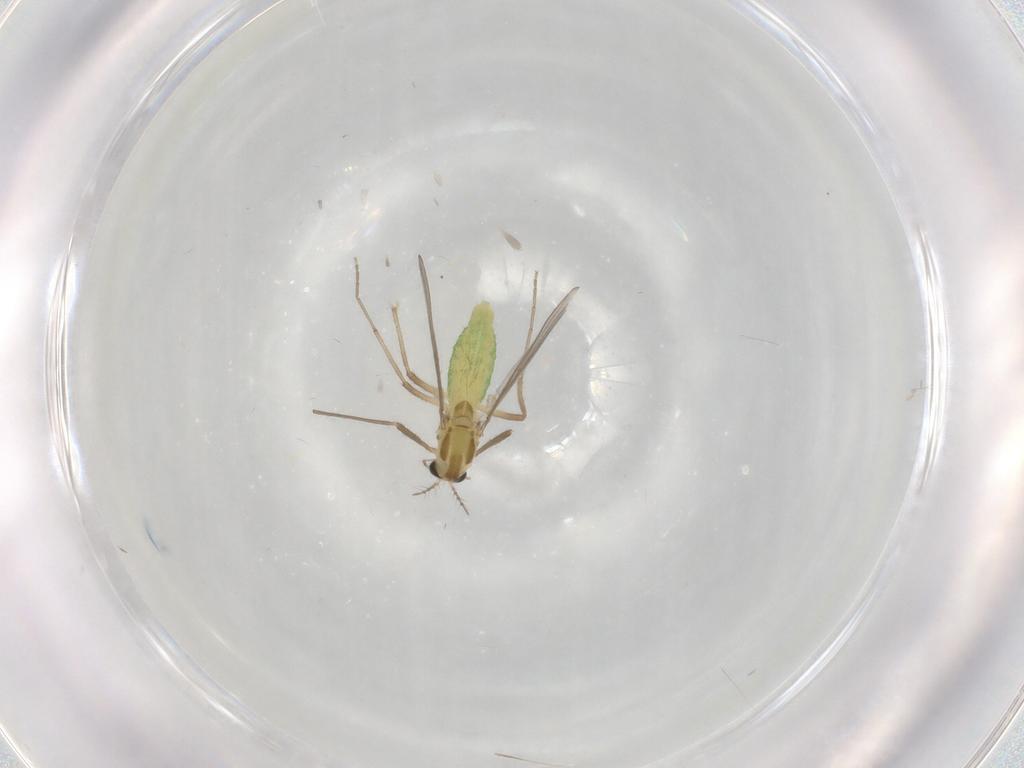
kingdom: Animalia
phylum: Arthropoda
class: Insecta
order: Diptera
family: Chironomidae
